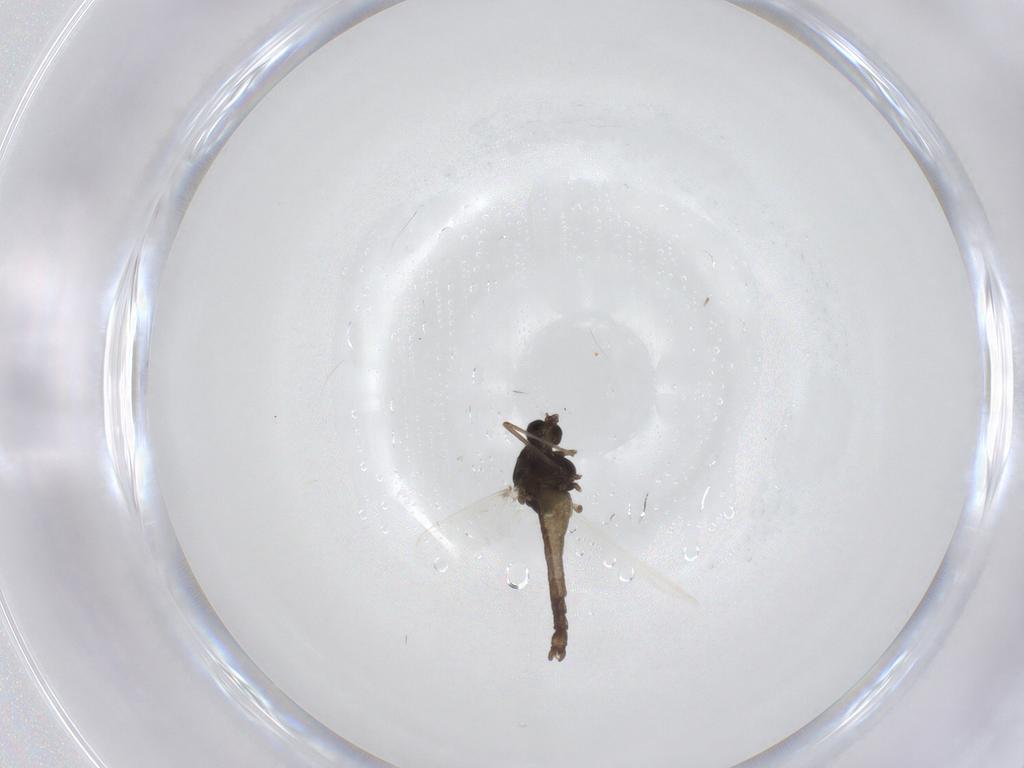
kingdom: Animalia
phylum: Arthropoda
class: Insecta
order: Diptera
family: Chironomidae
